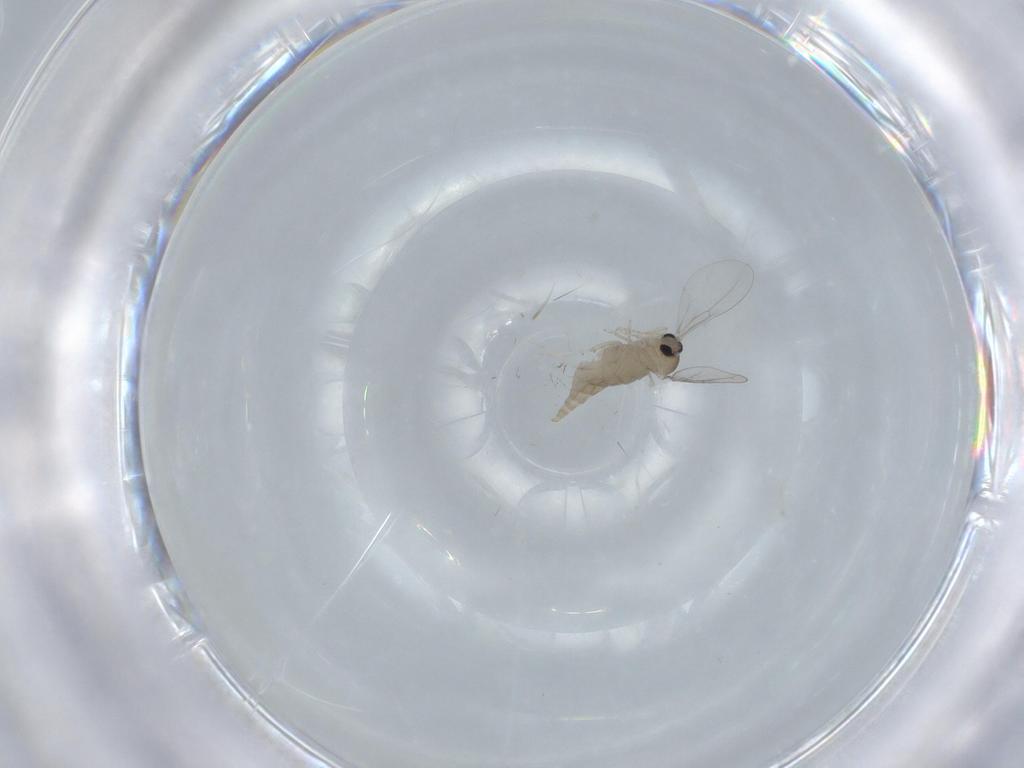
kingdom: Animalia
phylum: Arthropoda
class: Insecta
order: Diptera
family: Cecidomyiidae
